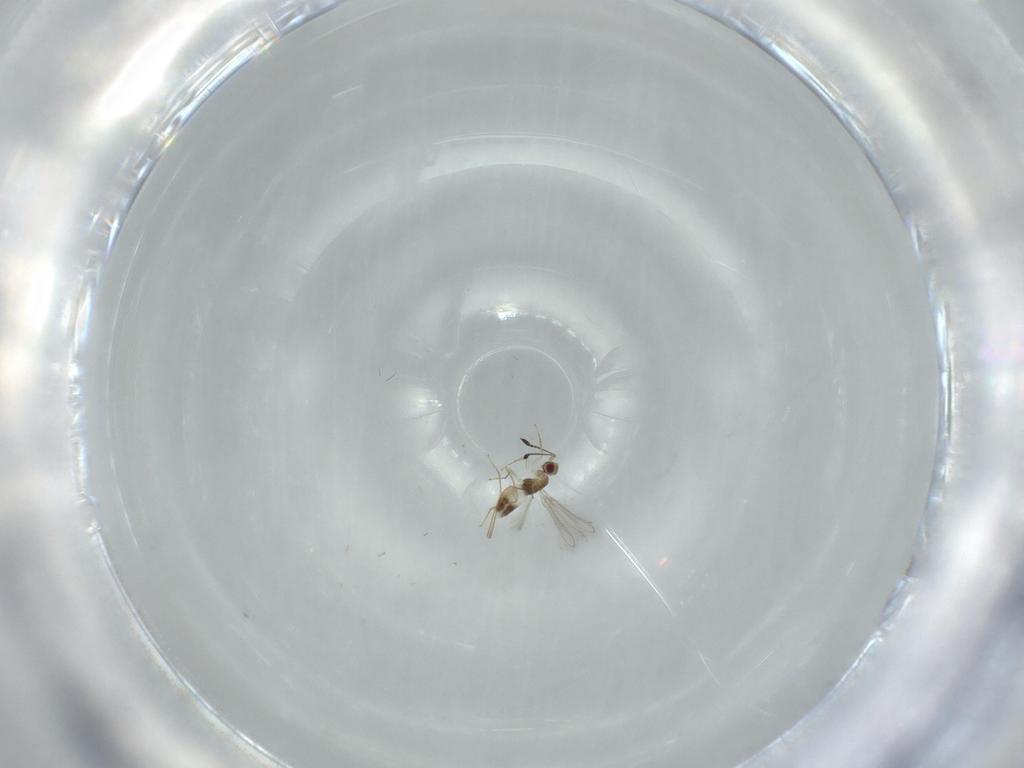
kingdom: Animalia
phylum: Arthropoda
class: Insecta
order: Hymenoptera
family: Mymaridae
